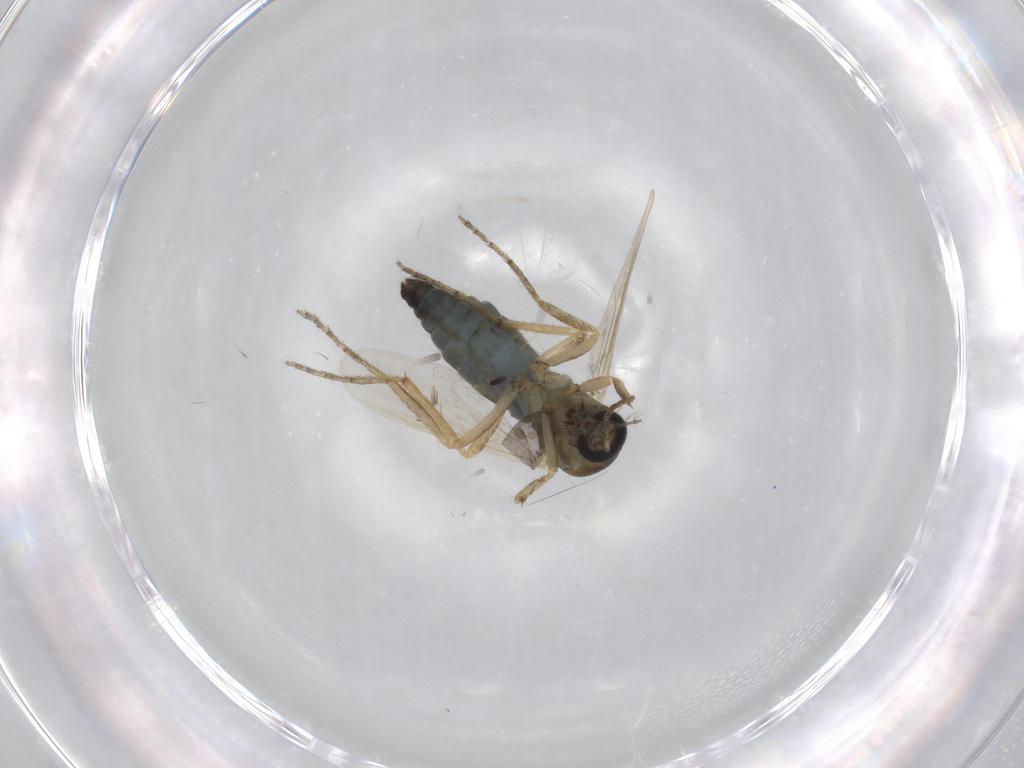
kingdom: Animalia
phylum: Arthropoda
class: Insecta
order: Diptera
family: Ceratopogonidae
